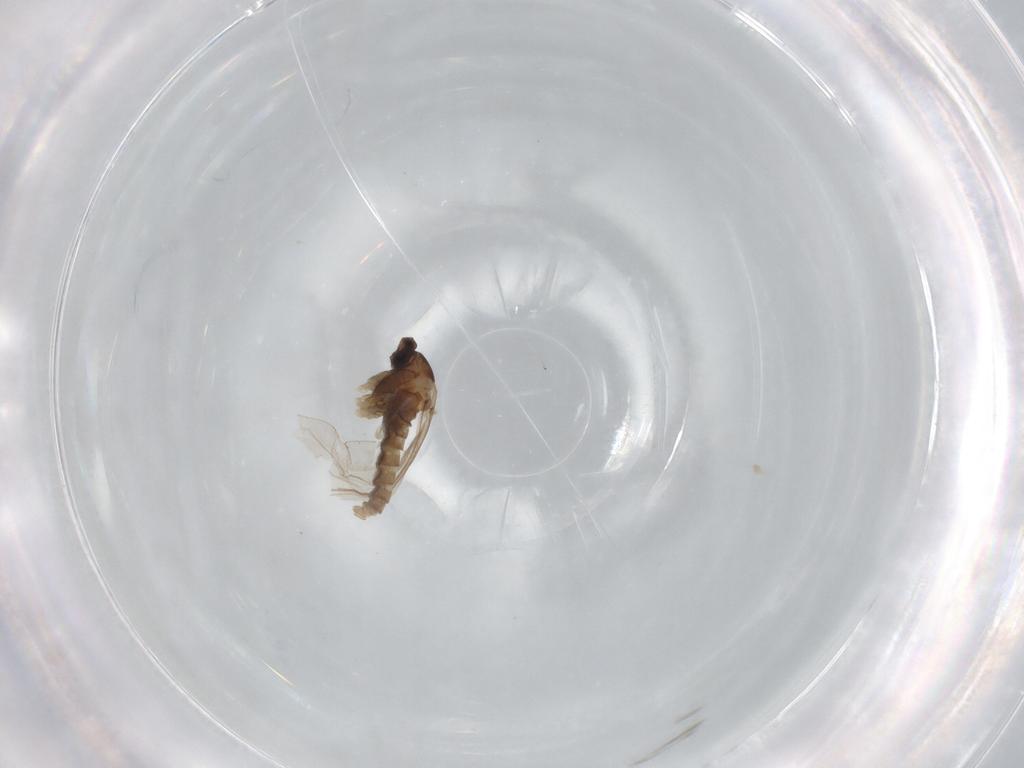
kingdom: Animalia
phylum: Arthropoda
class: Insecta
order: Diptera
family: Cecidomyiidae
